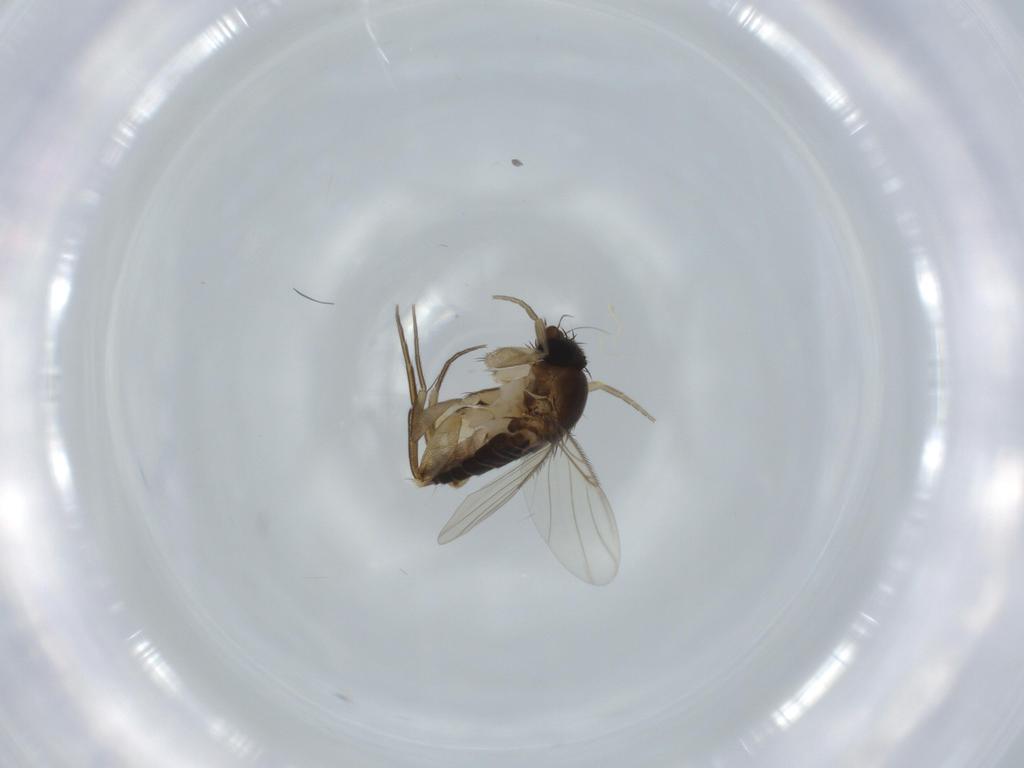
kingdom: Animalia
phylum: Arthropoda
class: Insecta
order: Diptera
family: Phoridae
